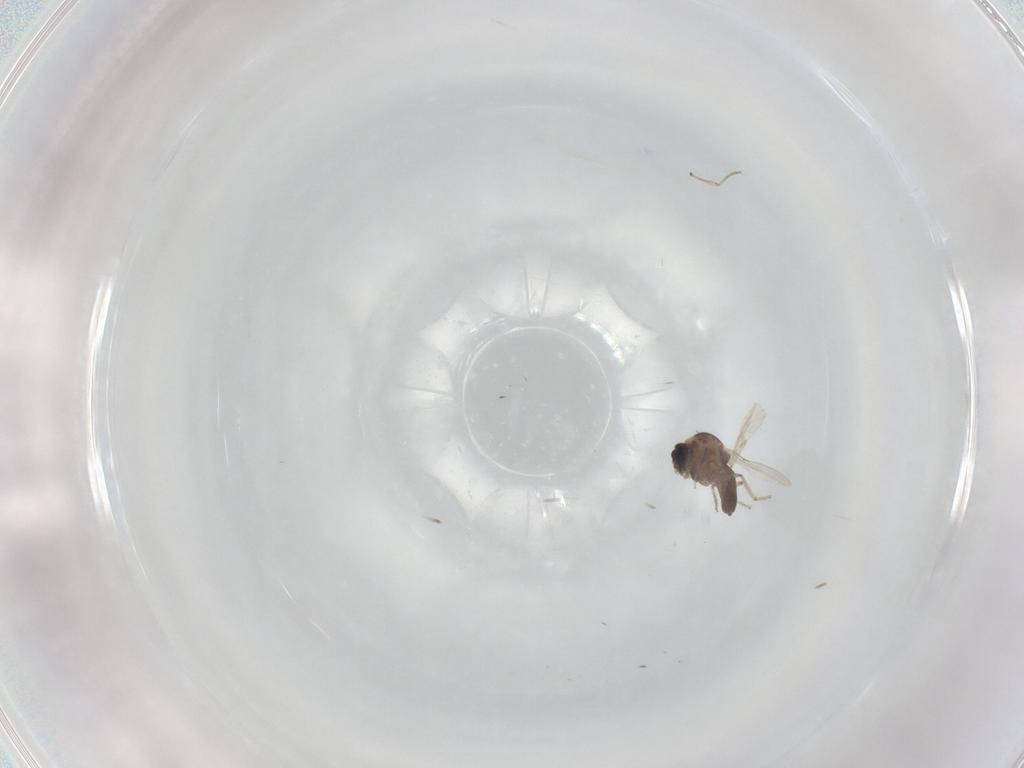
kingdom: Animalia
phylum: Arthropoda
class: Insecta
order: Diptera
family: Ceratopogonidae
